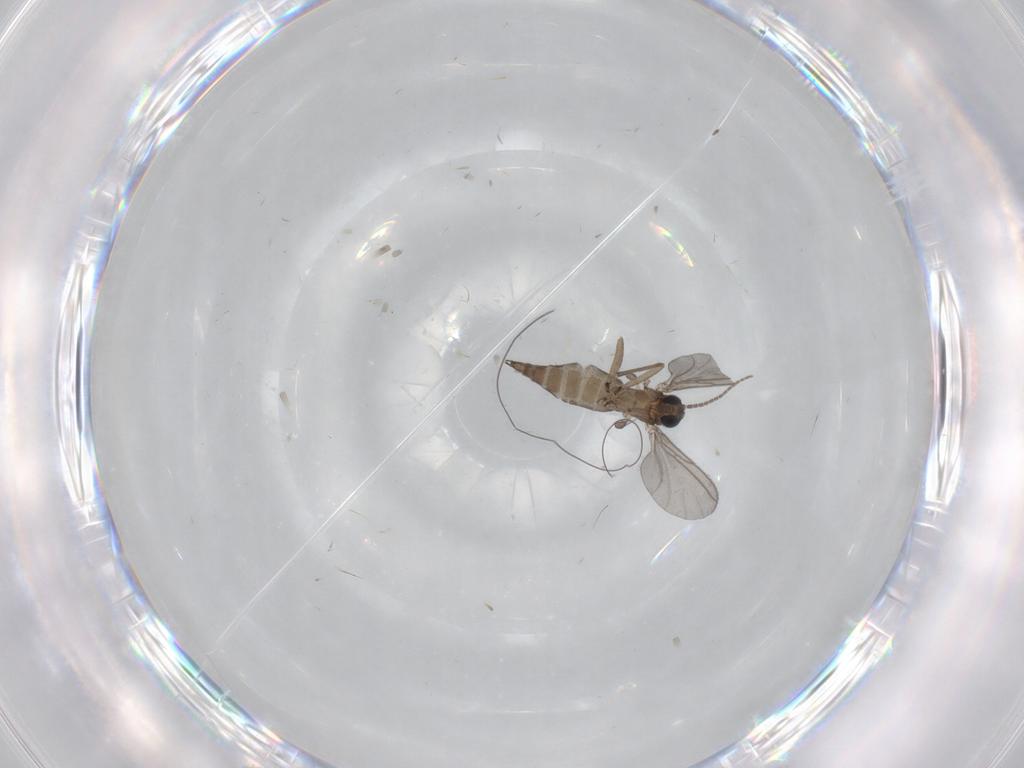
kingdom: Animalia
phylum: Arthropoda
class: Insecta
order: Diptera
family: Sciaridae
